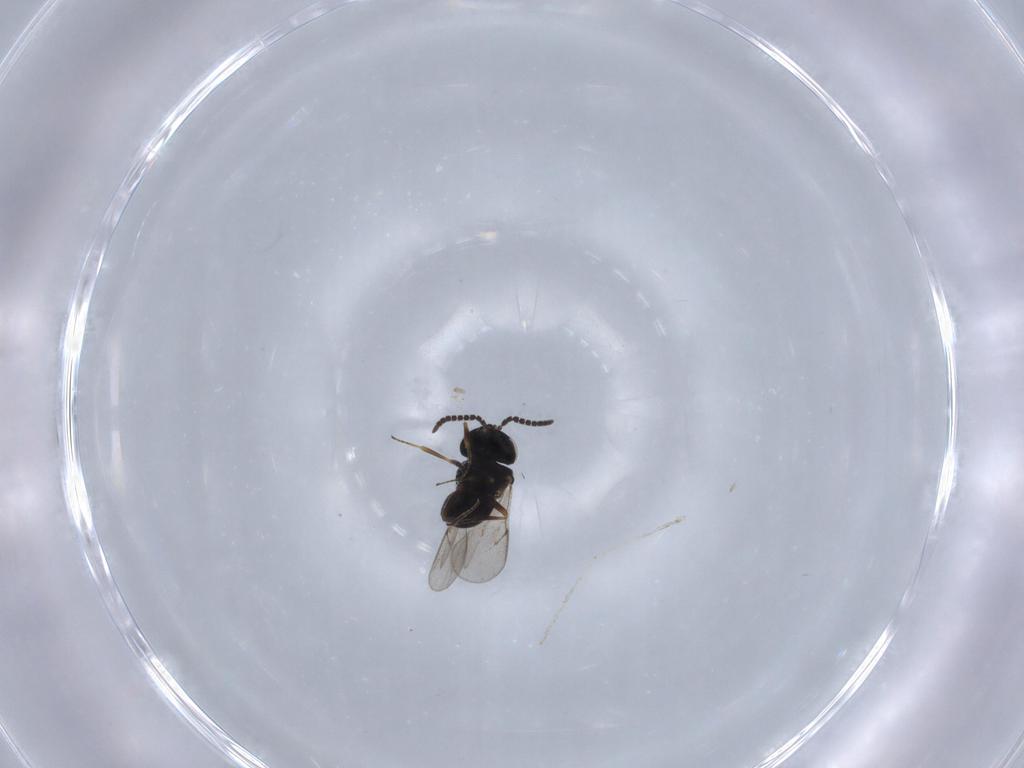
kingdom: Animalia
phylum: Arthropoda
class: Insecta
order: Hymenoptera
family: Scelionidae
